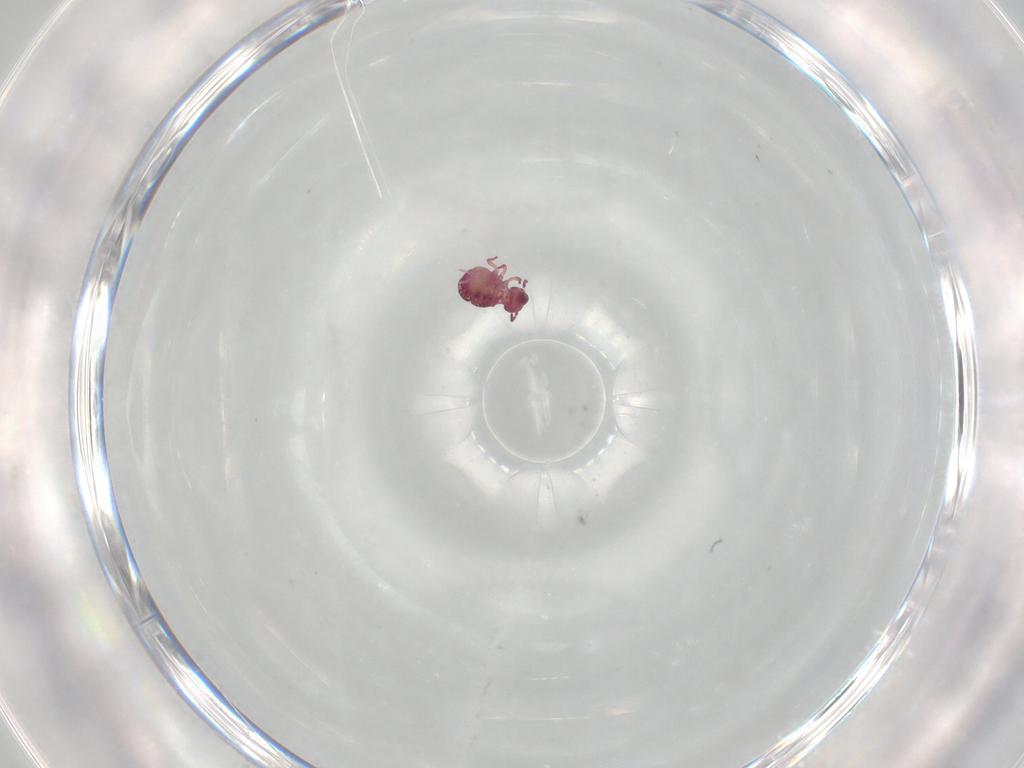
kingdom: Animalia
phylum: Arthropoda
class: Collembola
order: Symphypleona
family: Sminthurididae
